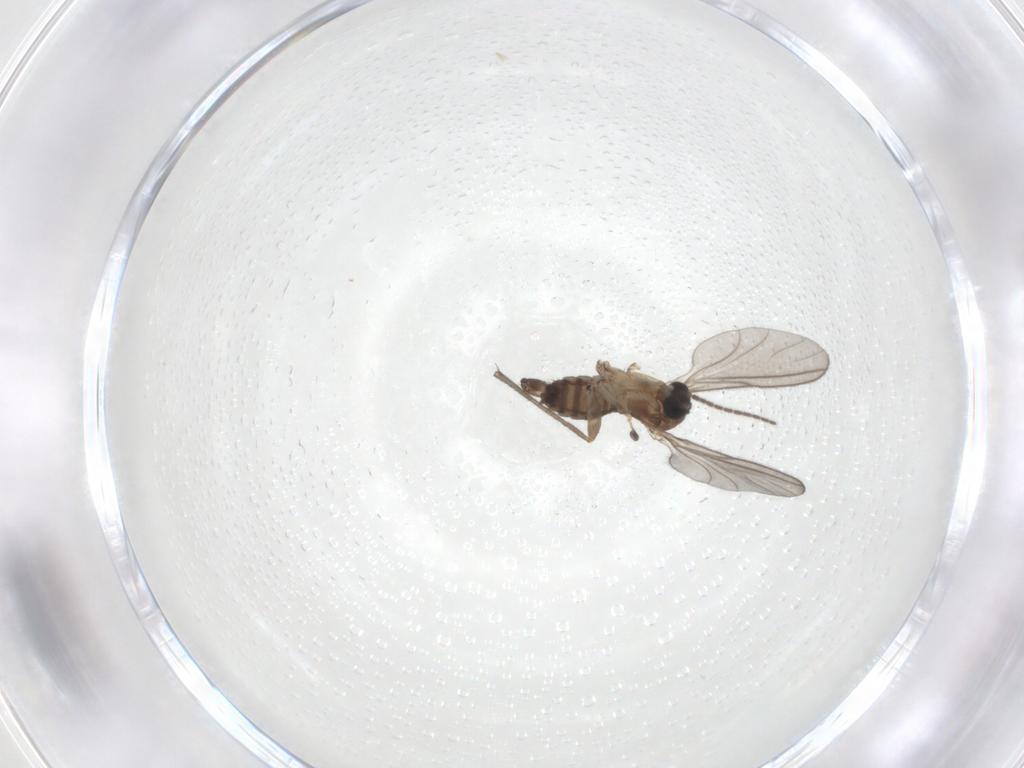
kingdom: Animalia
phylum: Arthropoda
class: Insecta
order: Diptera
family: Sciaridae
